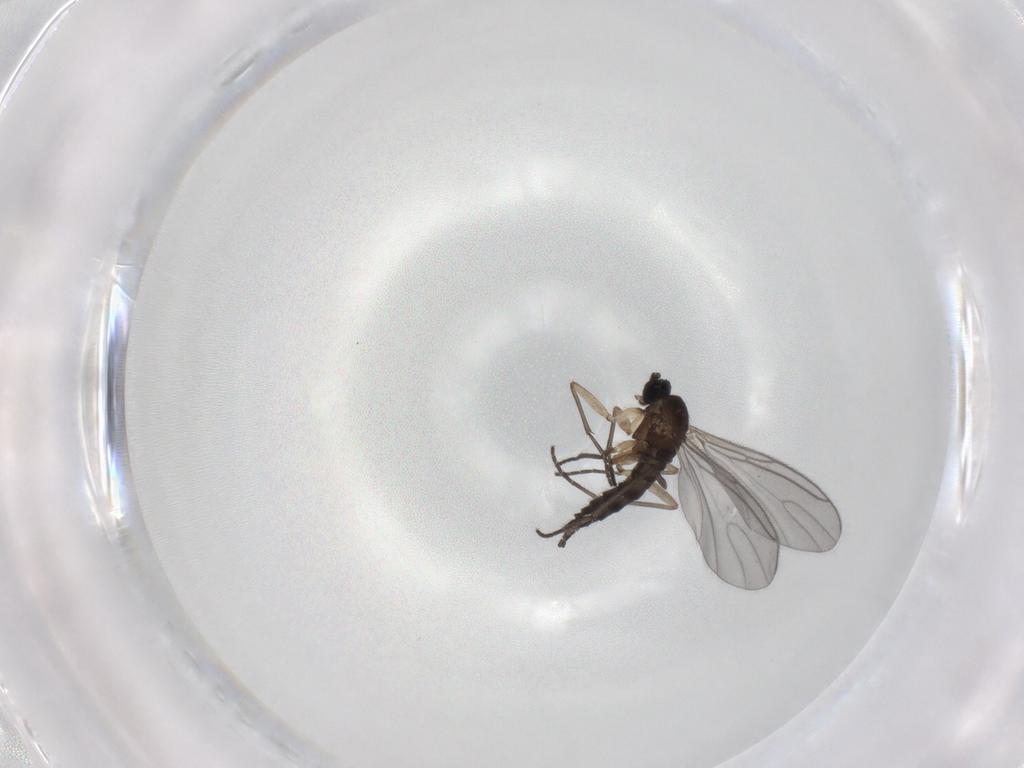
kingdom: Animalia
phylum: Arthropoda
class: Insecta
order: Diptera
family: Sciaridae
